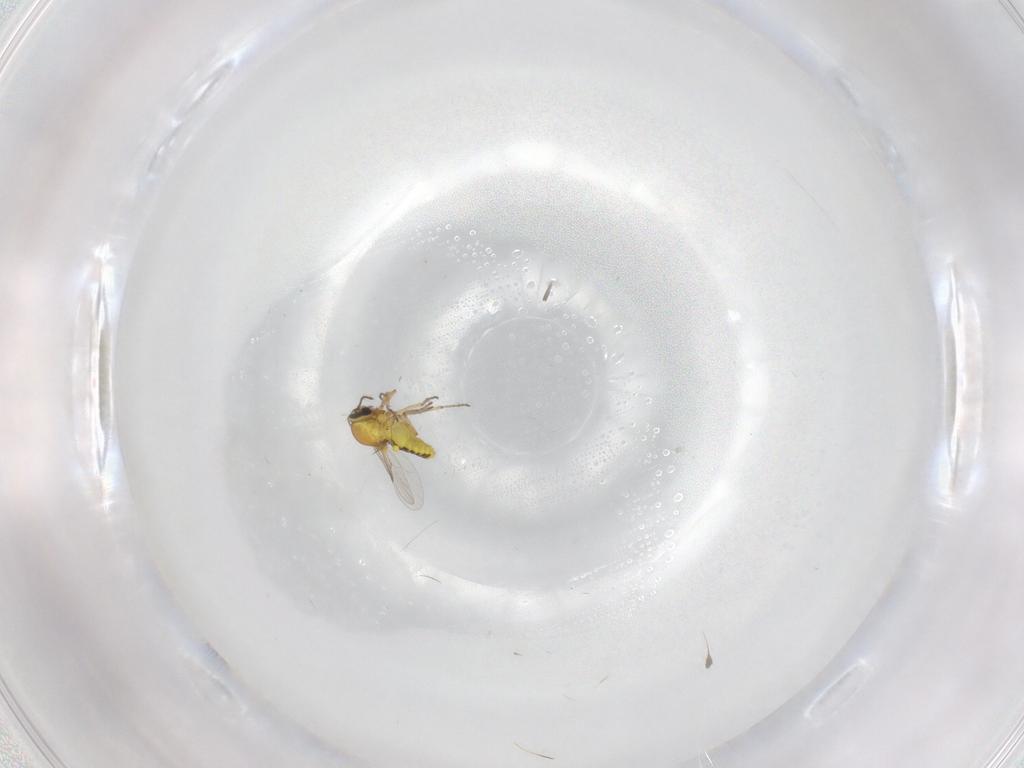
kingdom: Animalia
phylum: Arthropoda
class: Insecta
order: Diptera
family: Ceratopogonidae
